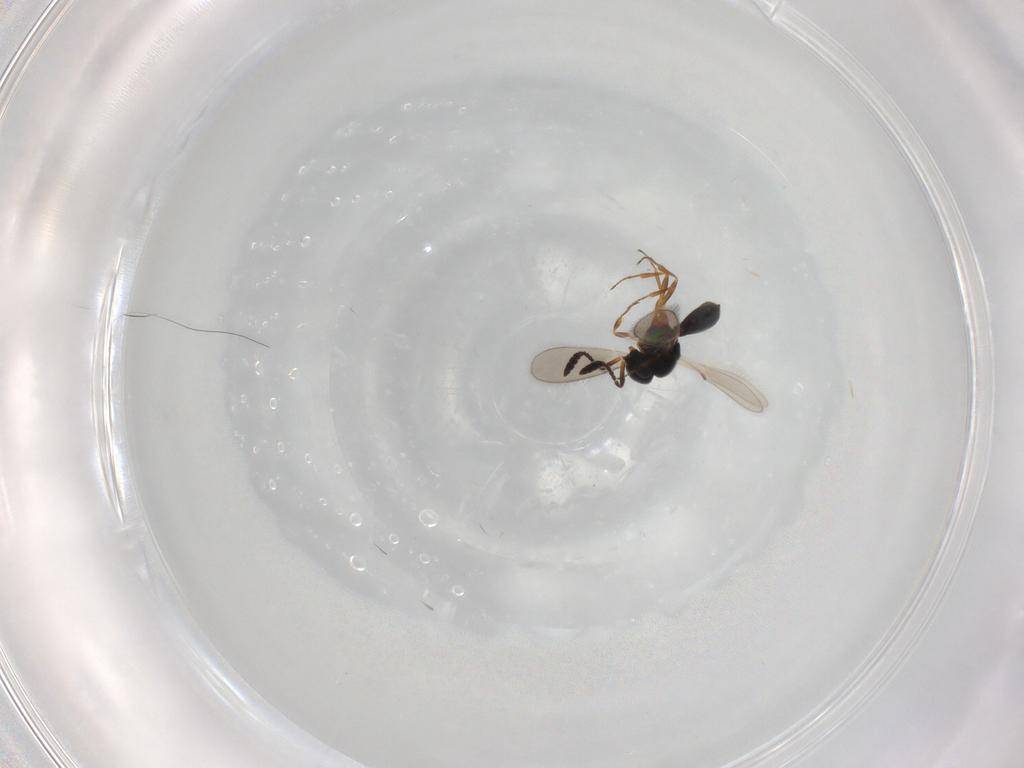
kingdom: Animalia
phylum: Arthropoda
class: Insecta
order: Hymenoptera
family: Scelionidae
